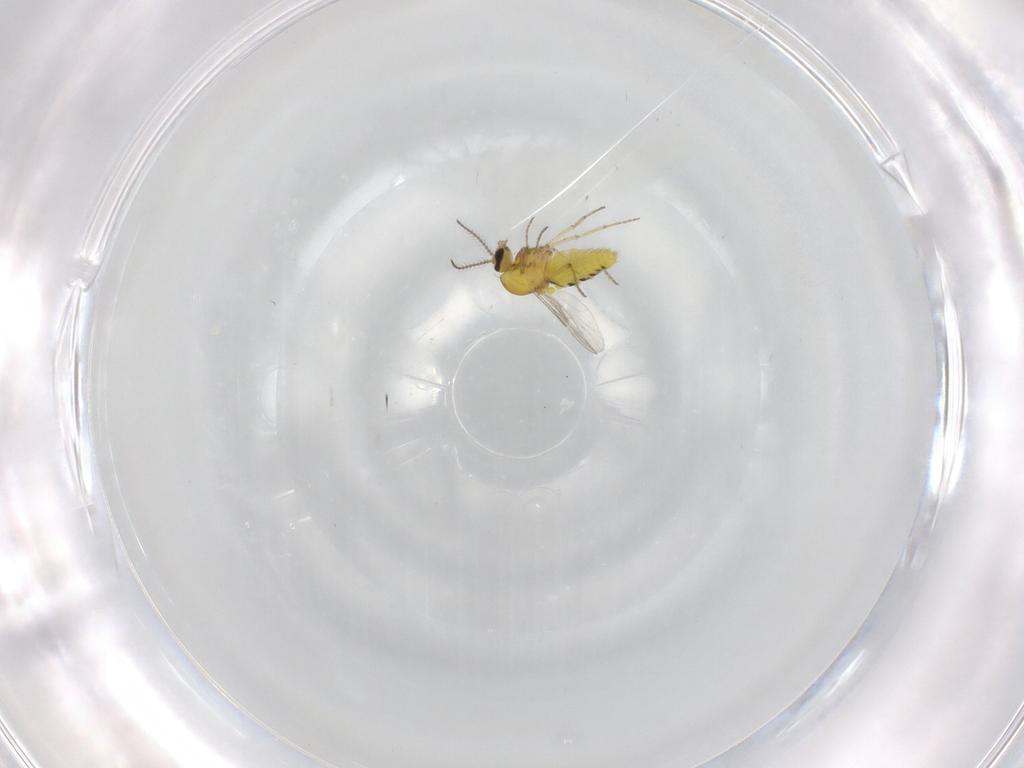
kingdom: Animalia
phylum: Arthropoda
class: Insecta
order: Diptera
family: Ceratopogonidae
